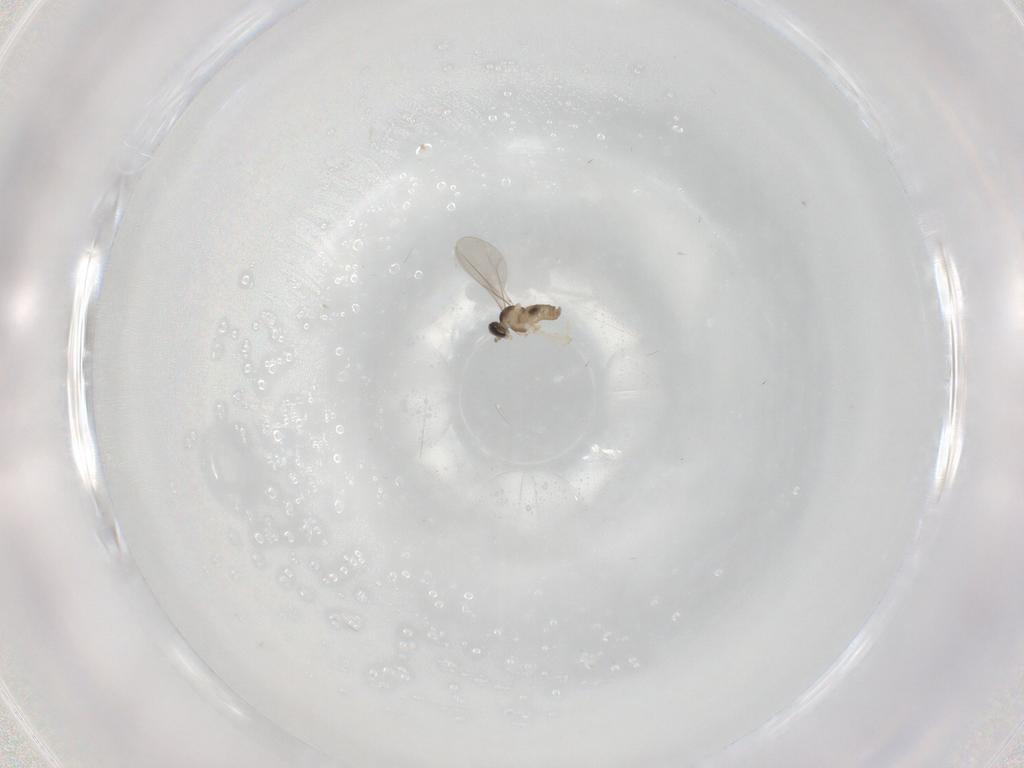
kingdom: Animalia
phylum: Arthropoda
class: Insecta
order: Diptera
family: Cecidomyiidae
